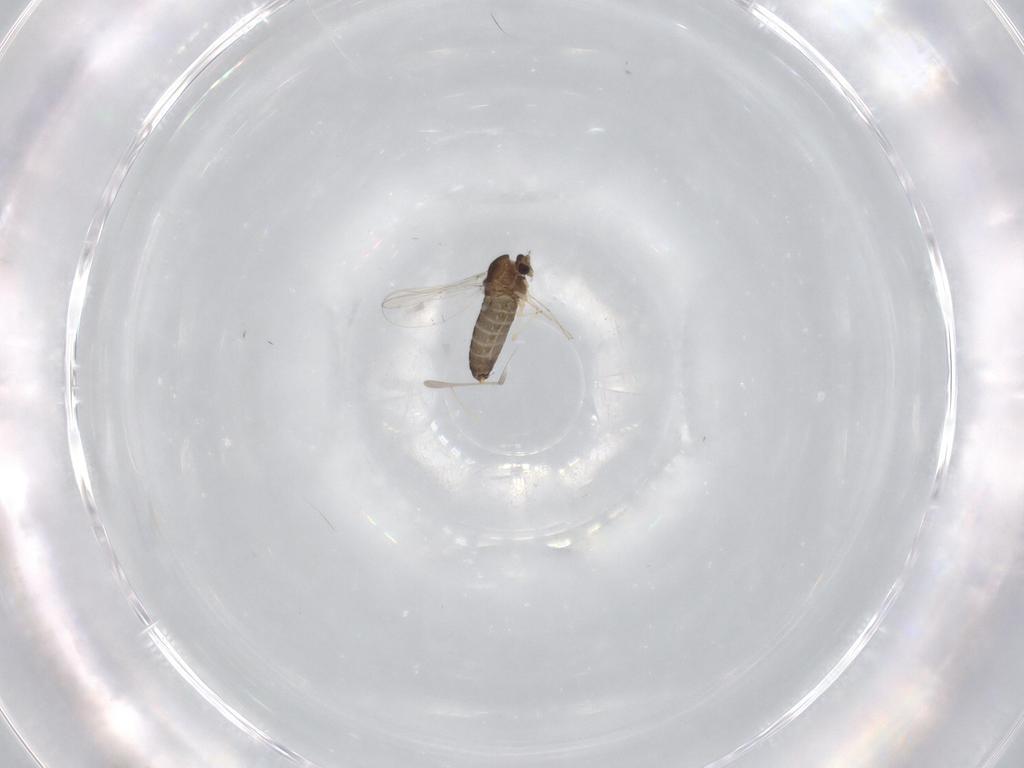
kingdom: Animalia
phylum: Arthropoda
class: Insecta
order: Diptera
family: Chironomidae
